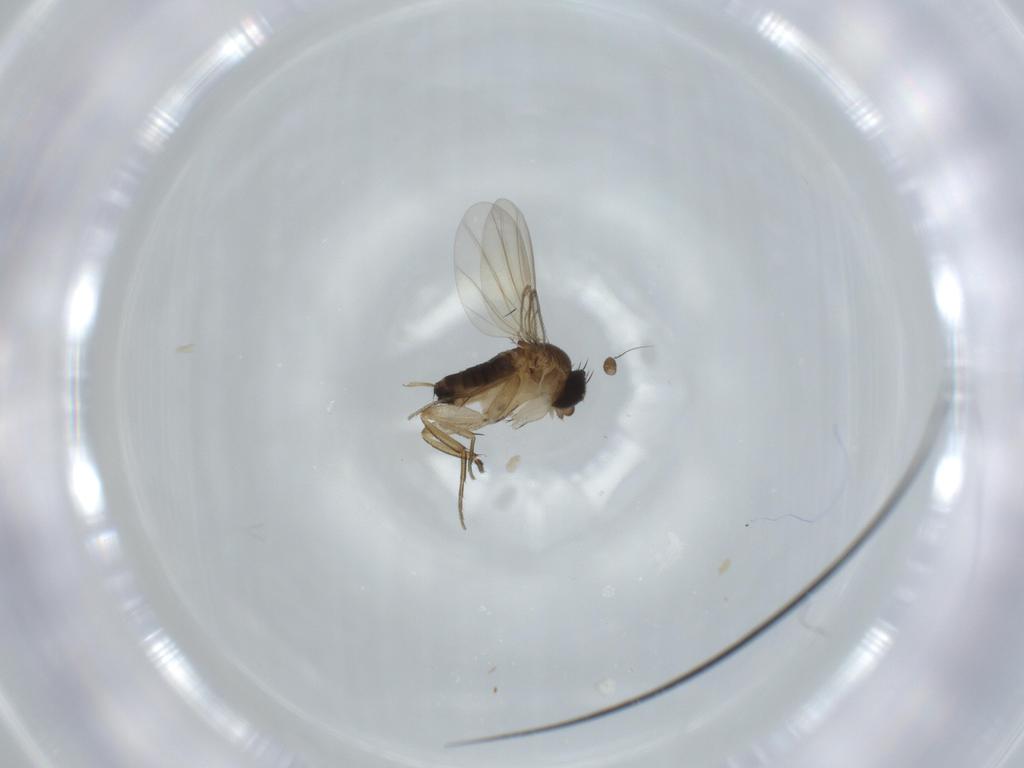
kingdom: Animalia
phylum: Arthropoda
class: Insecta
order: Diptera
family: Phoridae
